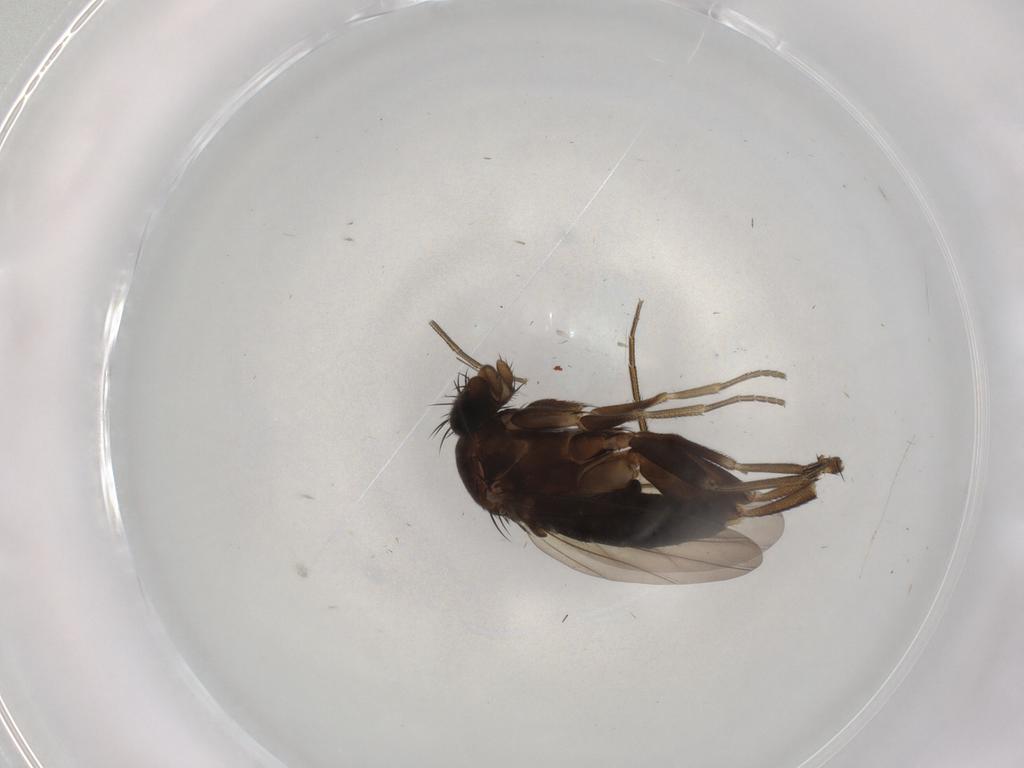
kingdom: Animalia
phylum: Arthropoda
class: Insecta
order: Diptera
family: Phoridae
